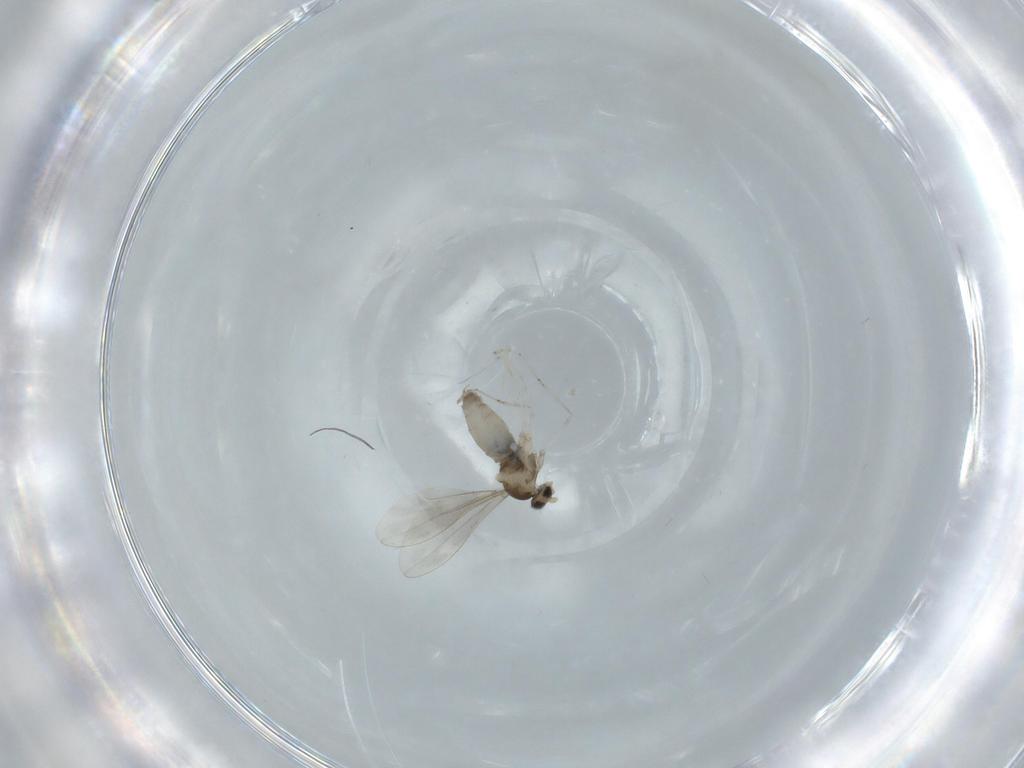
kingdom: Animalia
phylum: Arthropoda
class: Insecta
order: Diptera
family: Cecidomyiidae
